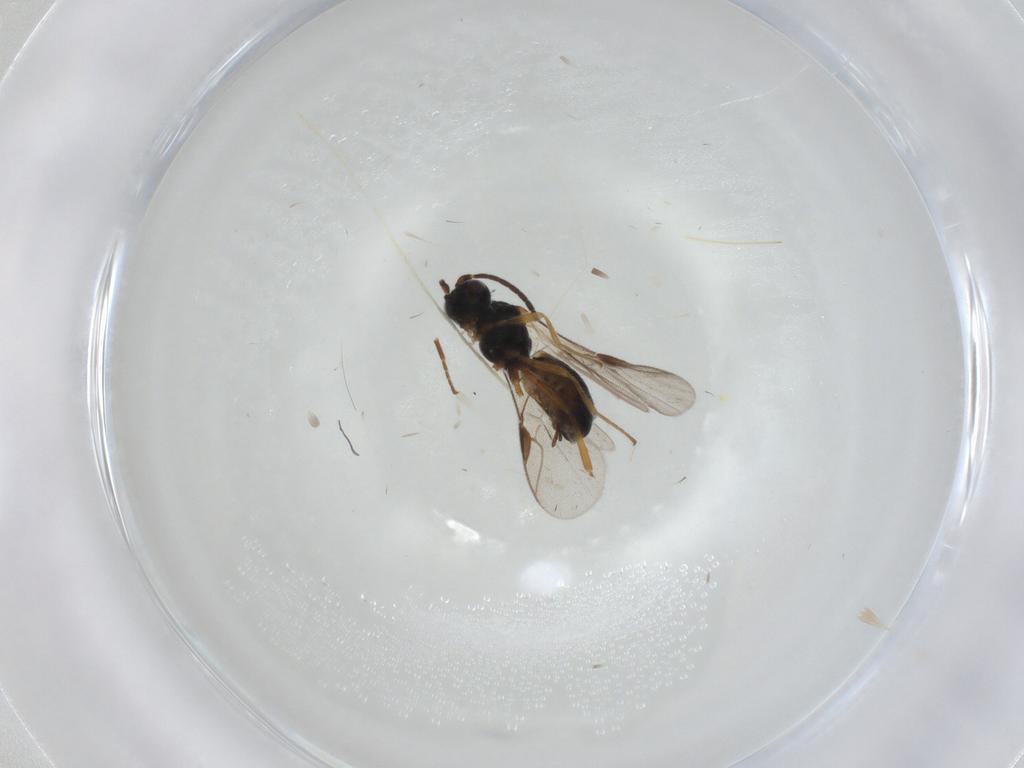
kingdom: Animalia
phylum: Arthropoda
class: Insecta
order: Hymenoptera
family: Braconidae
